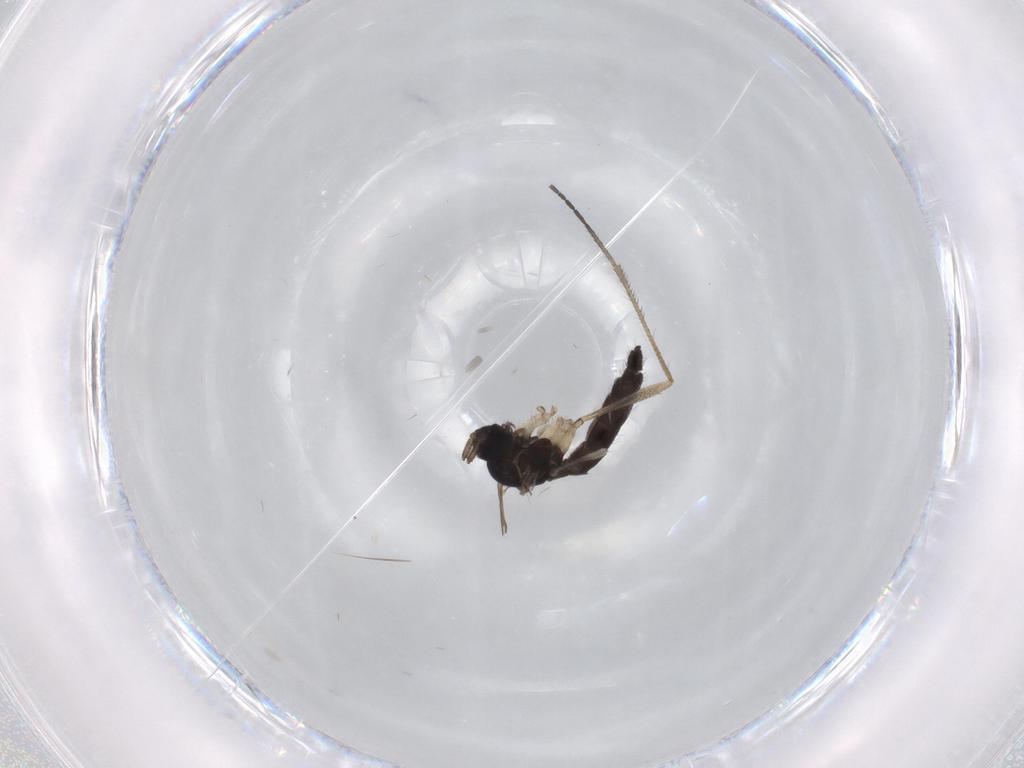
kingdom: Animalia
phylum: Arthropoda
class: Insecta
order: Diptera
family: Sciaridae
